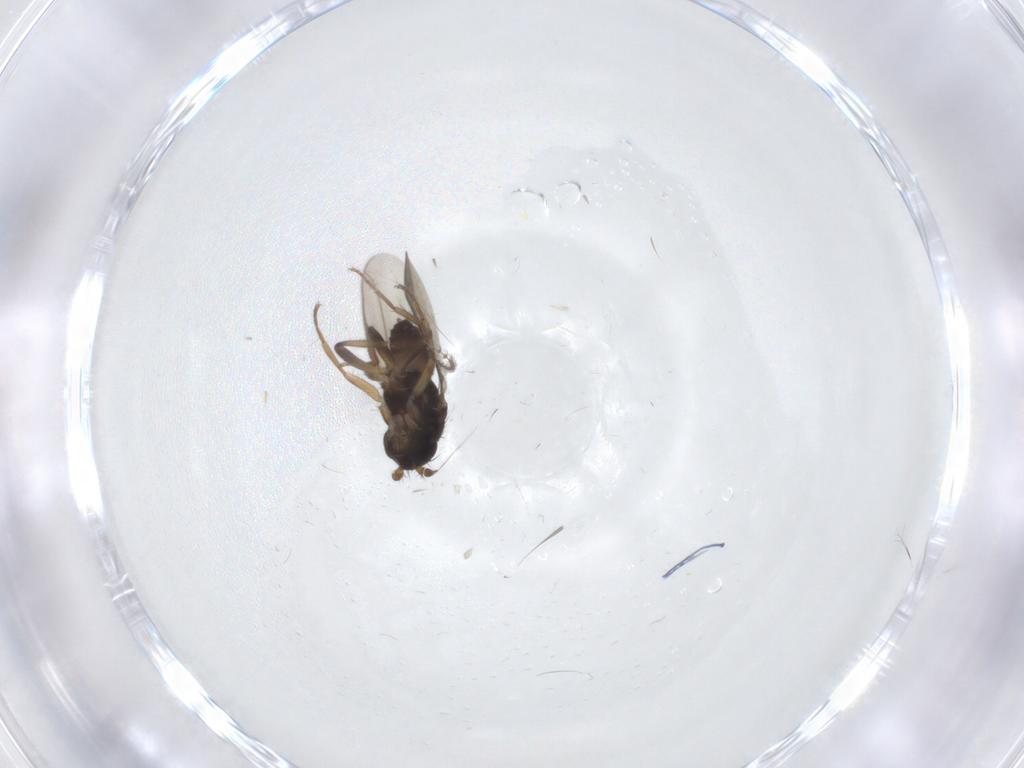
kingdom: Animalia
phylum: Arthropoda
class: Insecta
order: Diptera
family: Sphaeroceridae
